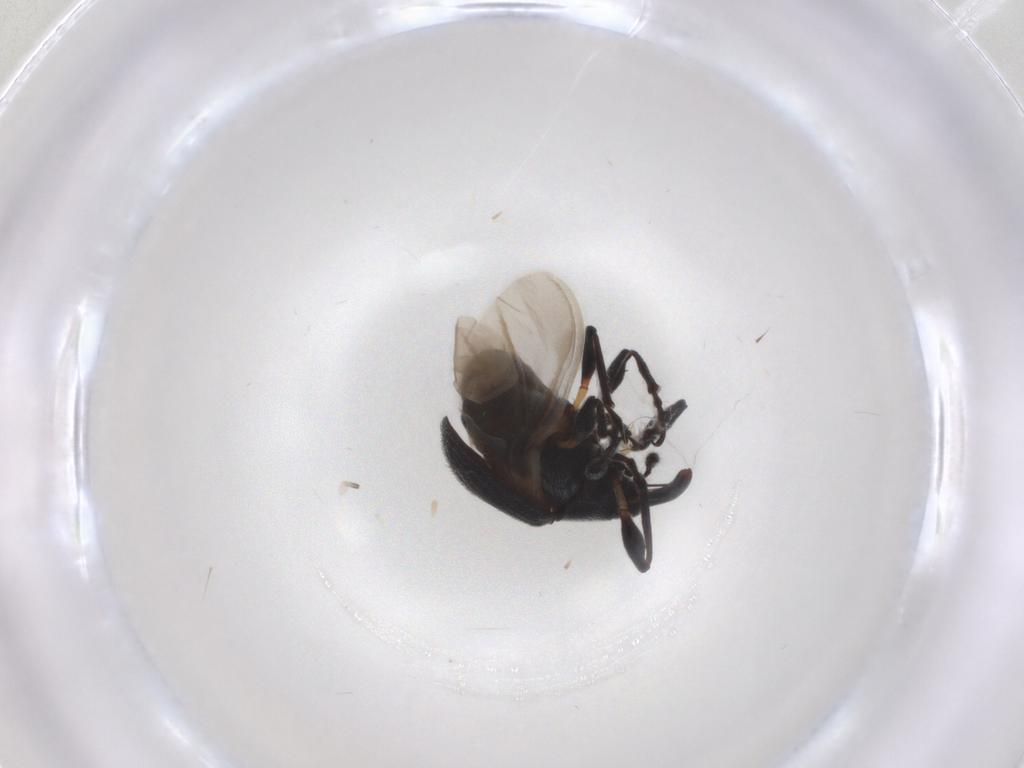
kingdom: Animalia
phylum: Arthropoda
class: Insecta
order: Coleoptera
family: Brentidae
